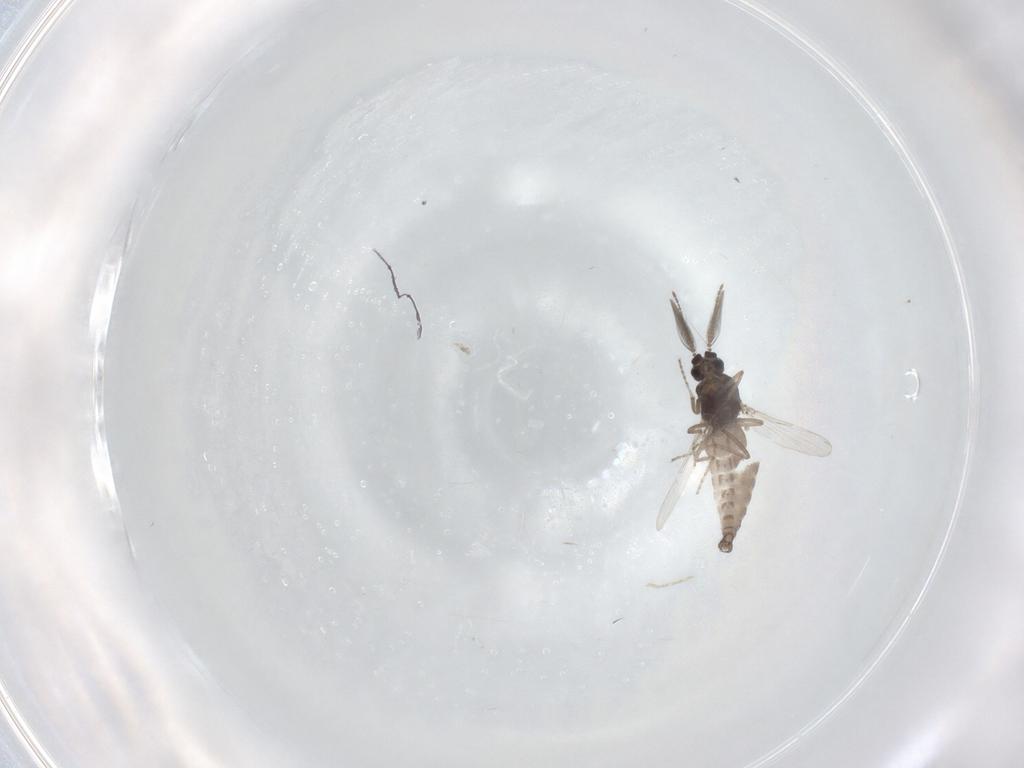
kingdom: Animalia
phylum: Arthropoda
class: Insecta
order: Diptera
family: Ceratopogonidae
